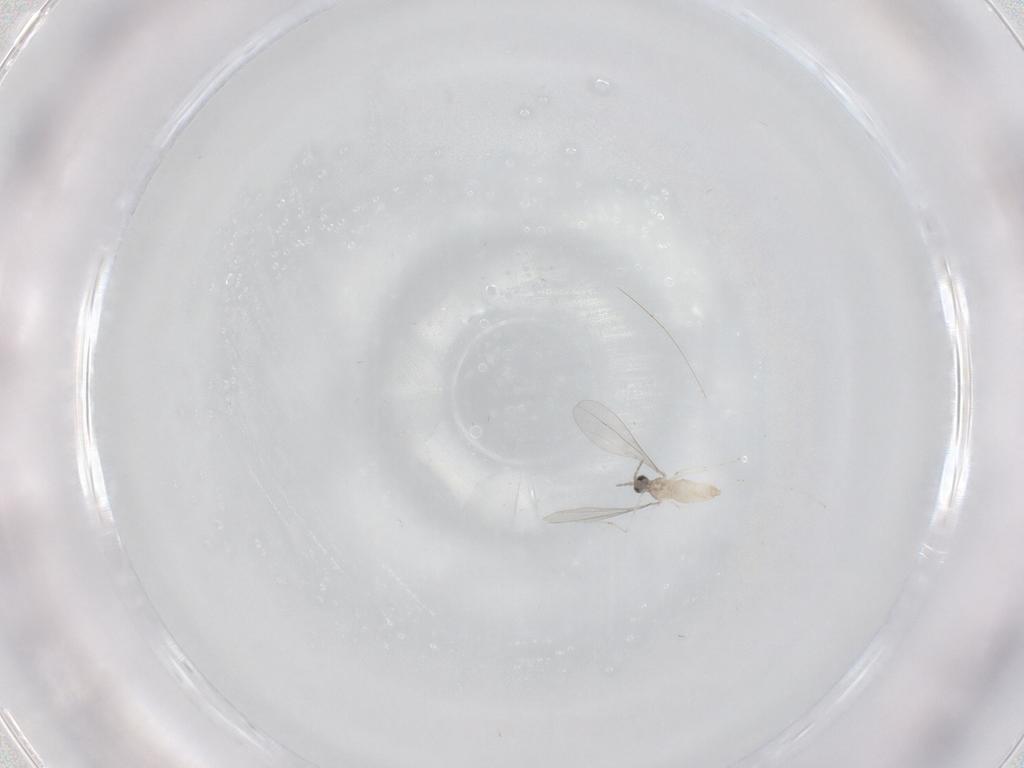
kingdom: Animalia
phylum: Arthropoda
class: Insecta
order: Diptera
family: Cecidomyiidae
